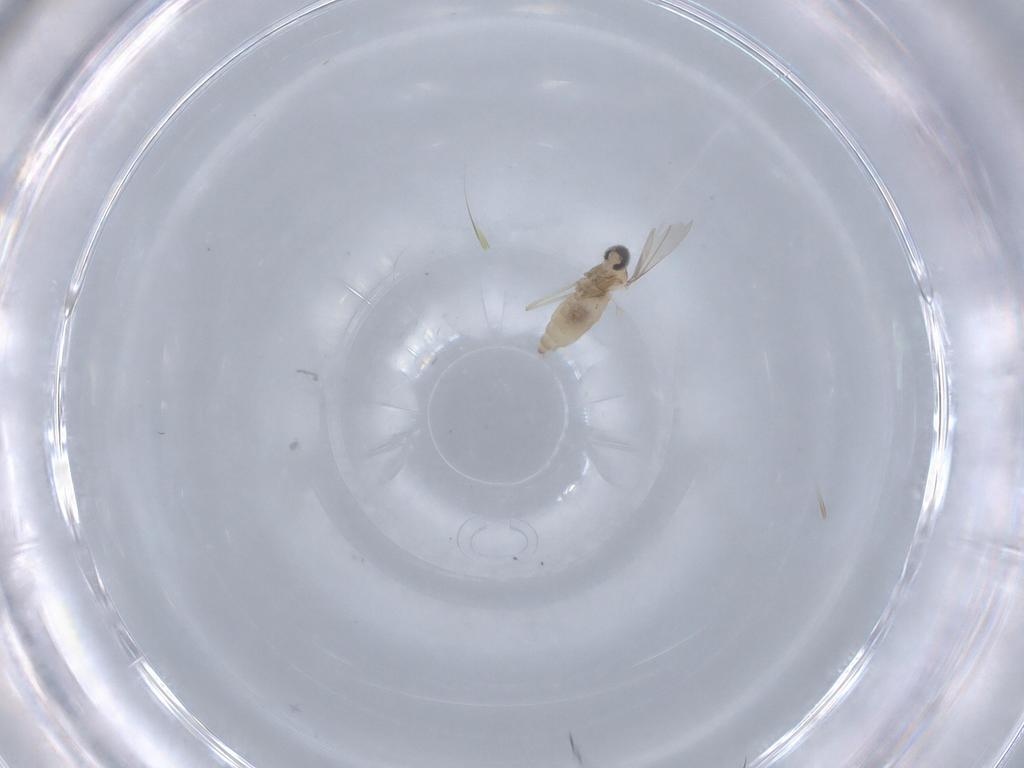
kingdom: Animalia
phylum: Arthropoda
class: Insecta
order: Diptera
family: Cecidomyiidae
